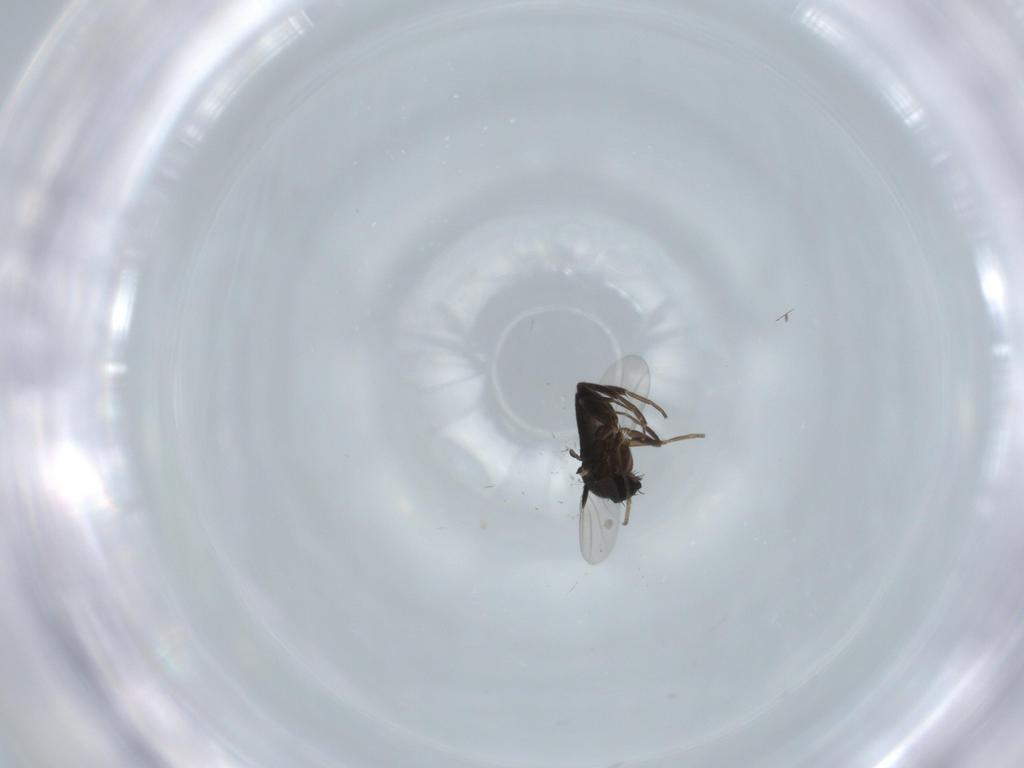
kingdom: Animalia
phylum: Arthropoda
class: Insecta
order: Diptera
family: Phoridae
